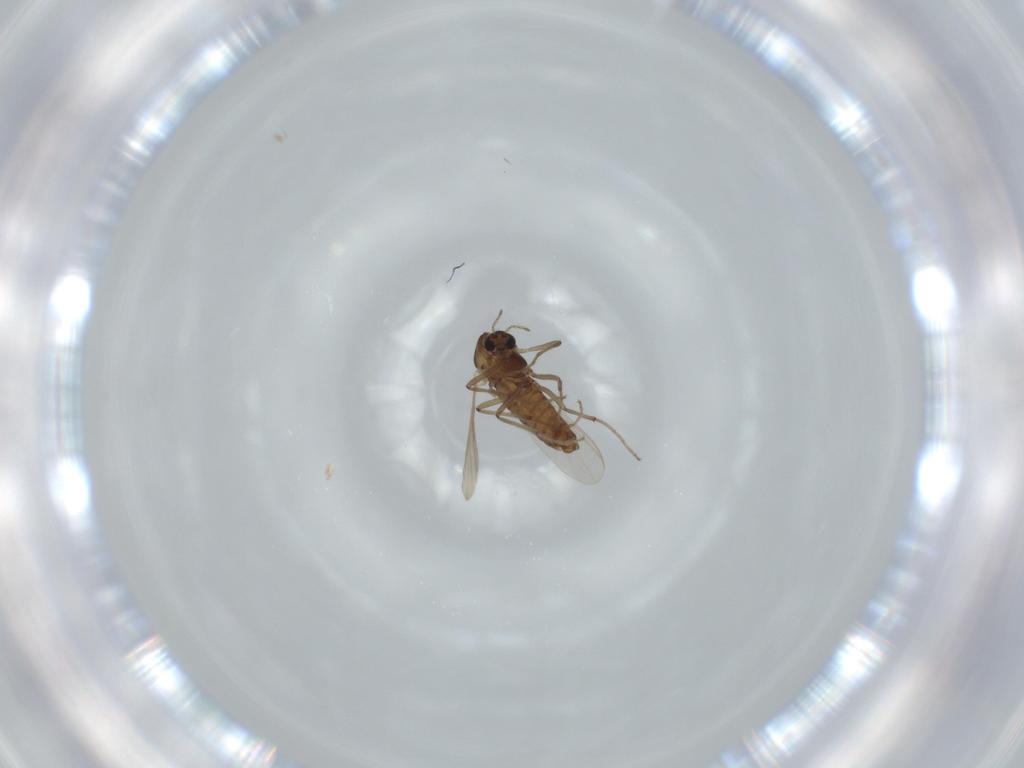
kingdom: Animalia
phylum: Arthropoda
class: Insecta
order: Diptera
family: Chironomidae
